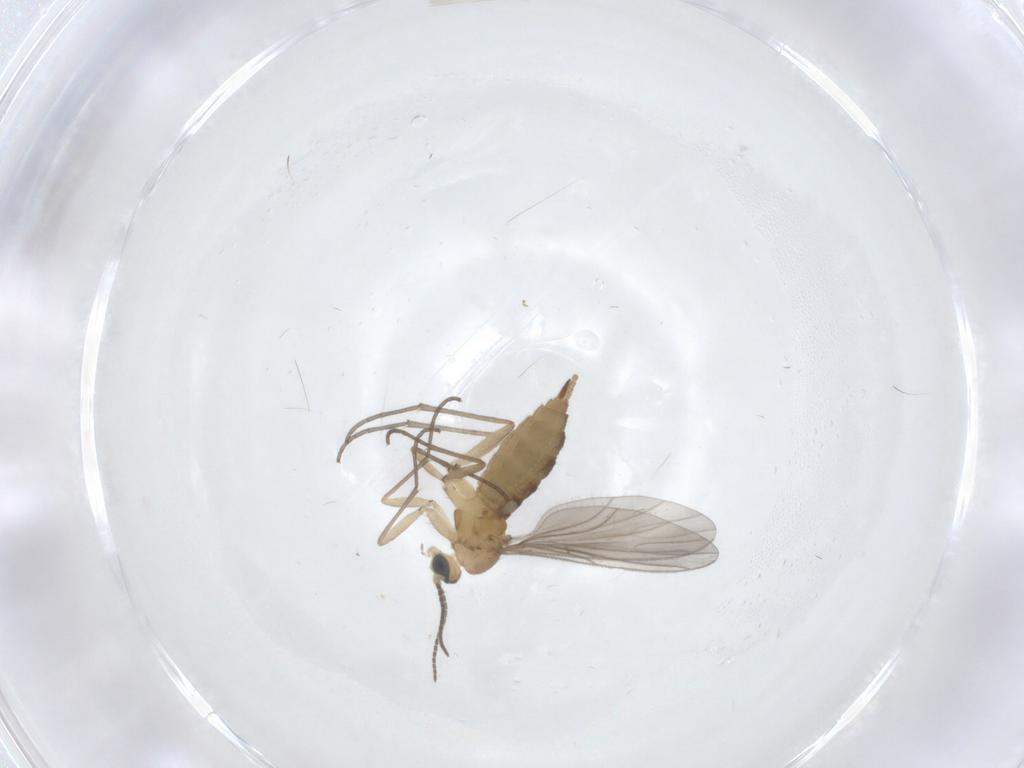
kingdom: Animalia
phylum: Arthropoda
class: Insecta
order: Diptera
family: Sciaridae
